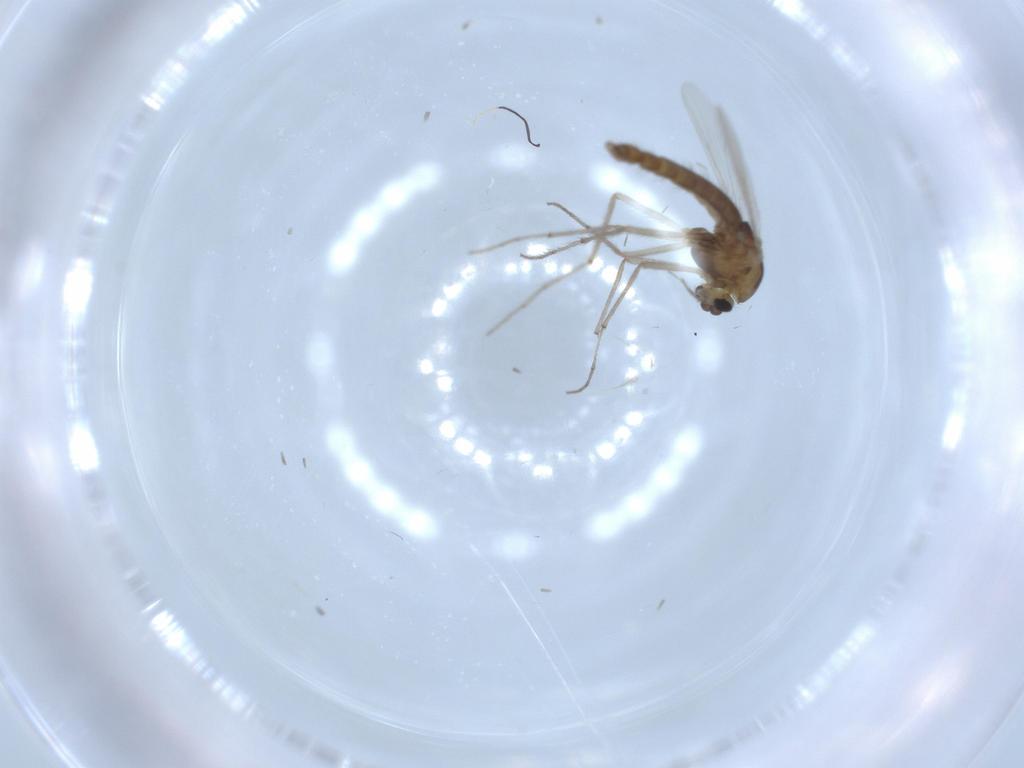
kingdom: Animalia
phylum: Arthropoda
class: Insecta
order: Diptera
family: Chironomidae
